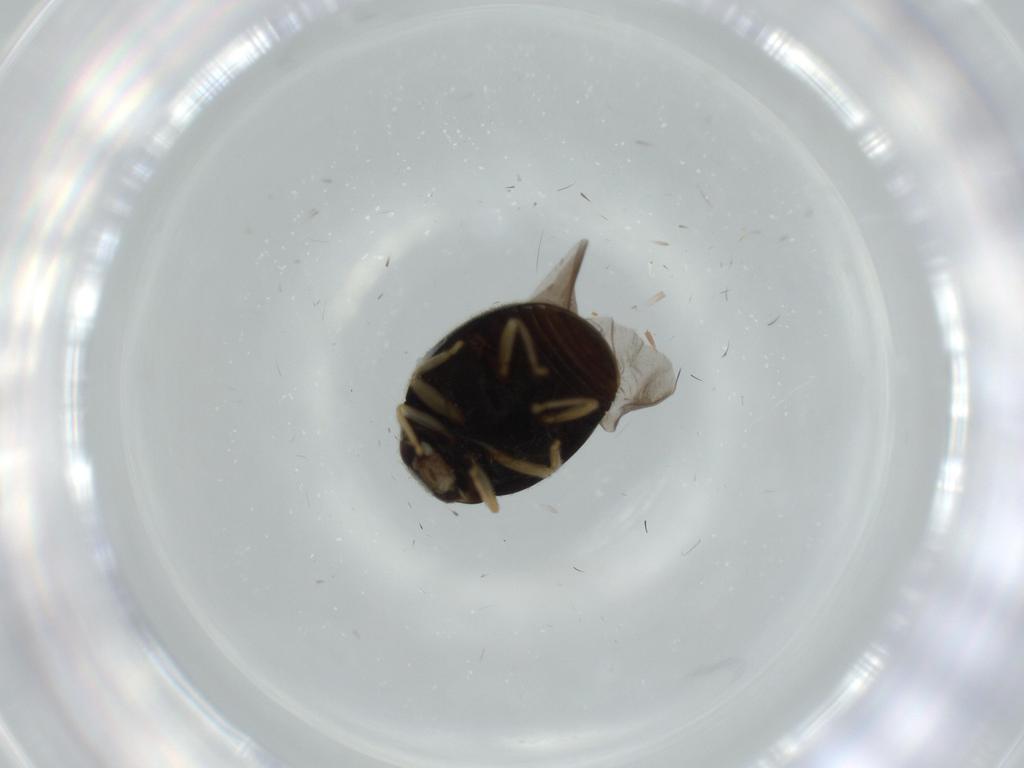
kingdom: Animalia
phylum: Arthropoda
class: Insecta
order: Coleoptera
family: Coccinellidae
